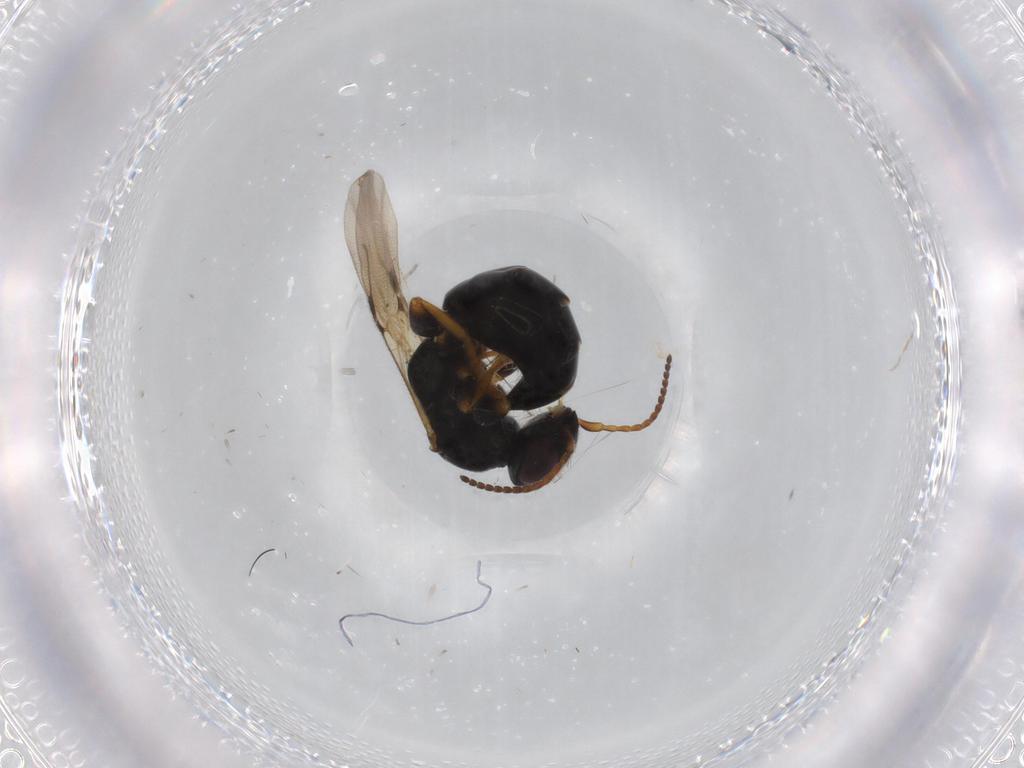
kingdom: Animalia
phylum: Arthropoda
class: Insecta
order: Hymenoptera
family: Bethylidae
